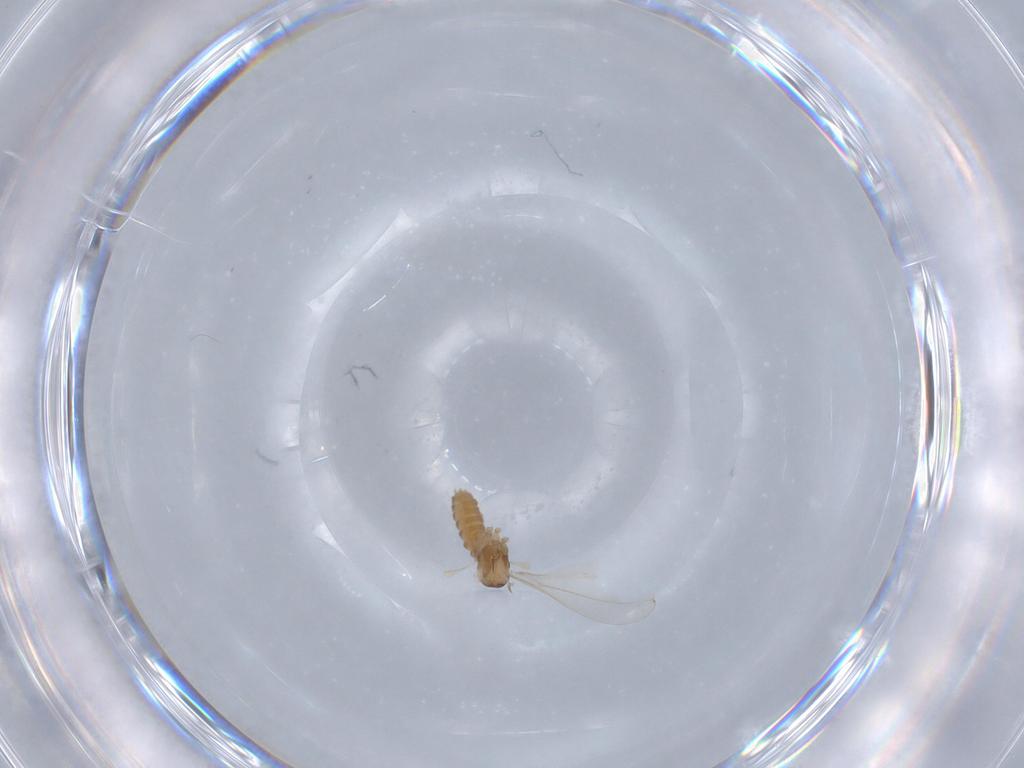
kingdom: Animalia
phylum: Arthropoda
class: Insecta
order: Diptera
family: Cecidomyiidae
